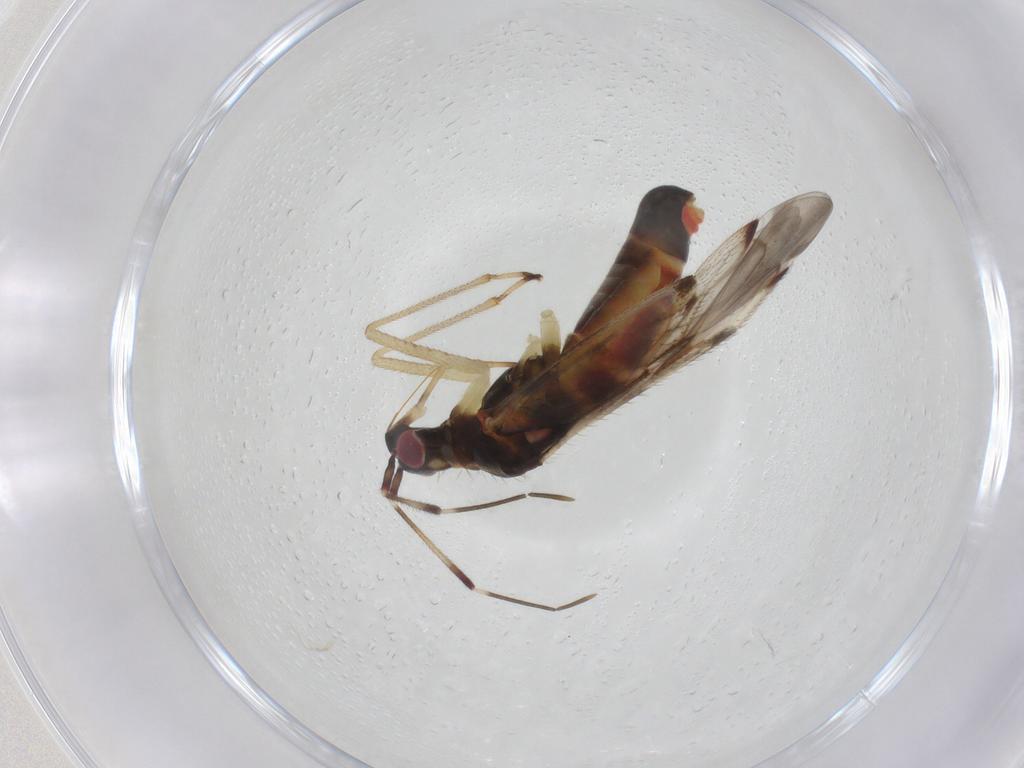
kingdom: Animalia
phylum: Arthropoda
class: Insecta
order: Hemiptera
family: Miridae
